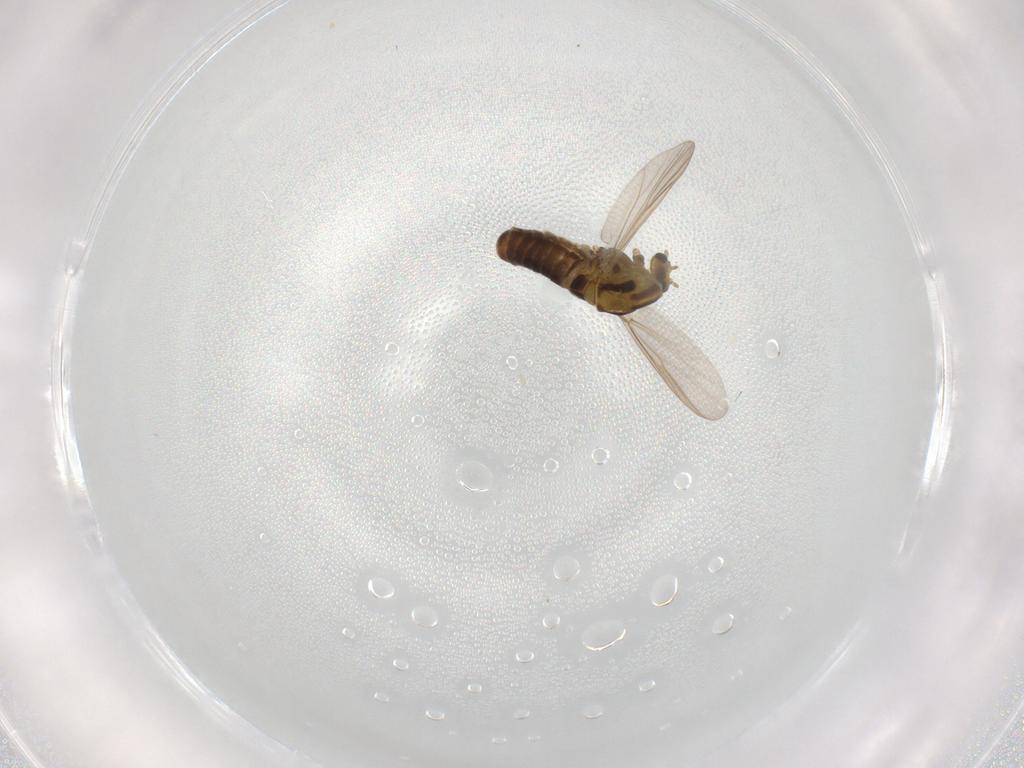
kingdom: Animalia
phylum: Arthropoda
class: Insecta
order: Diptera
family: Chironomidae
